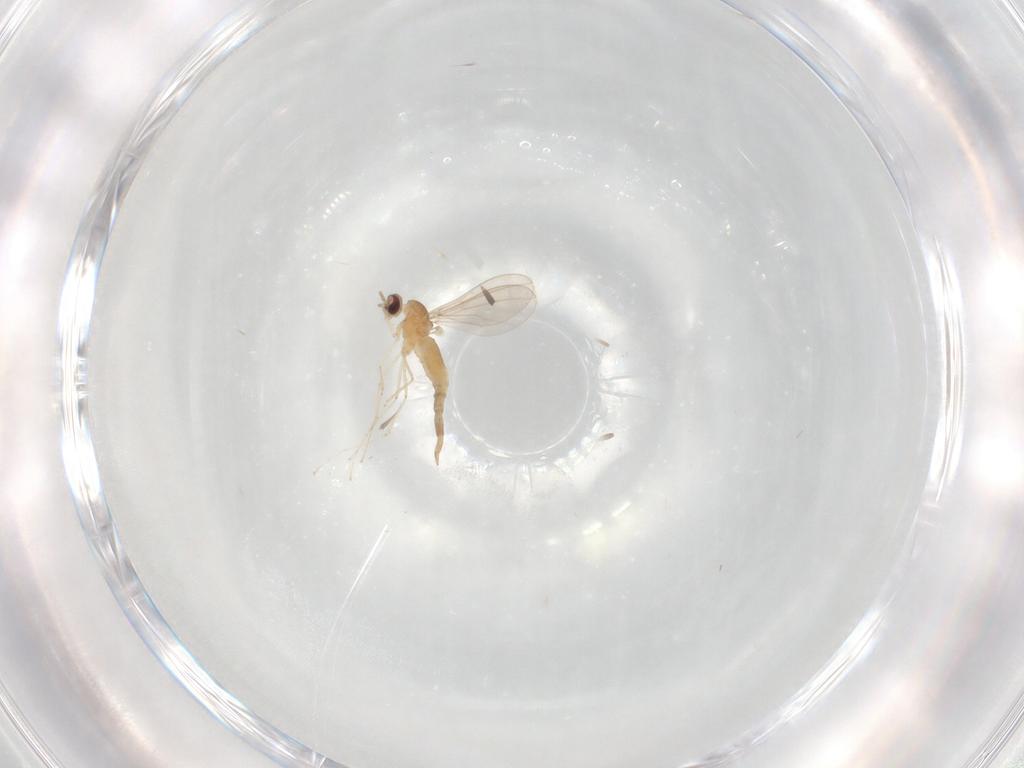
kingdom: Animalia
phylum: Arthropoda
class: Insecta
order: Diptera
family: Cecidomyiidae
